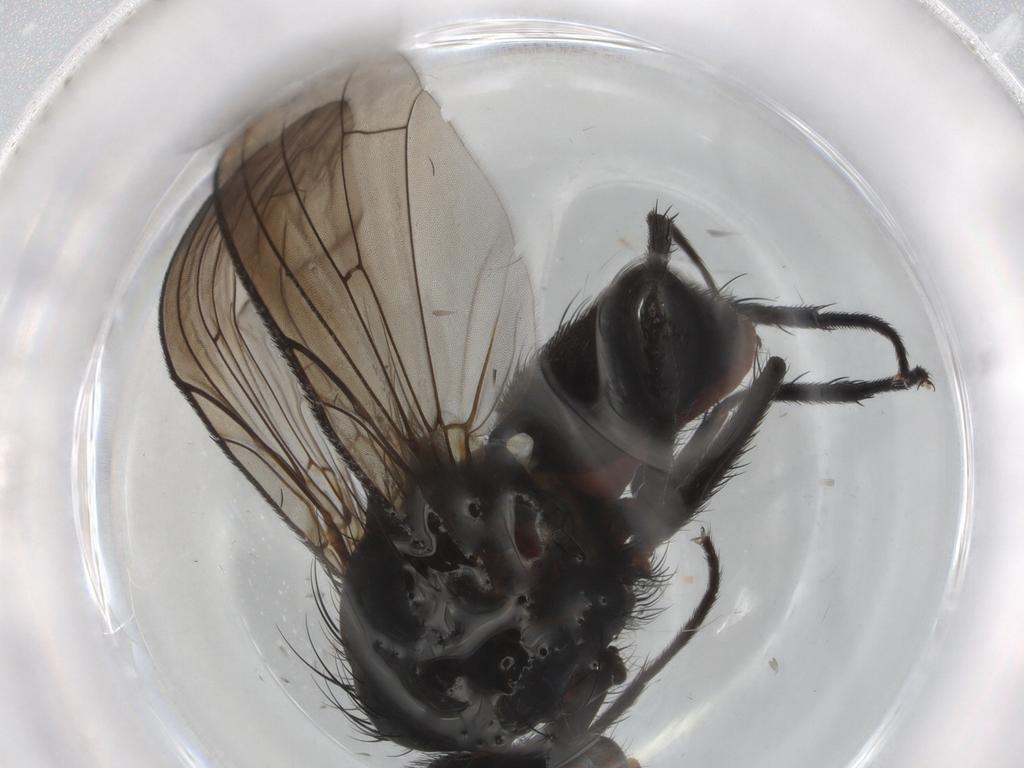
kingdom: Animalia
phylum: Arthropoda
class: Insecta
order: Diptera
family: Anthomyiidae
